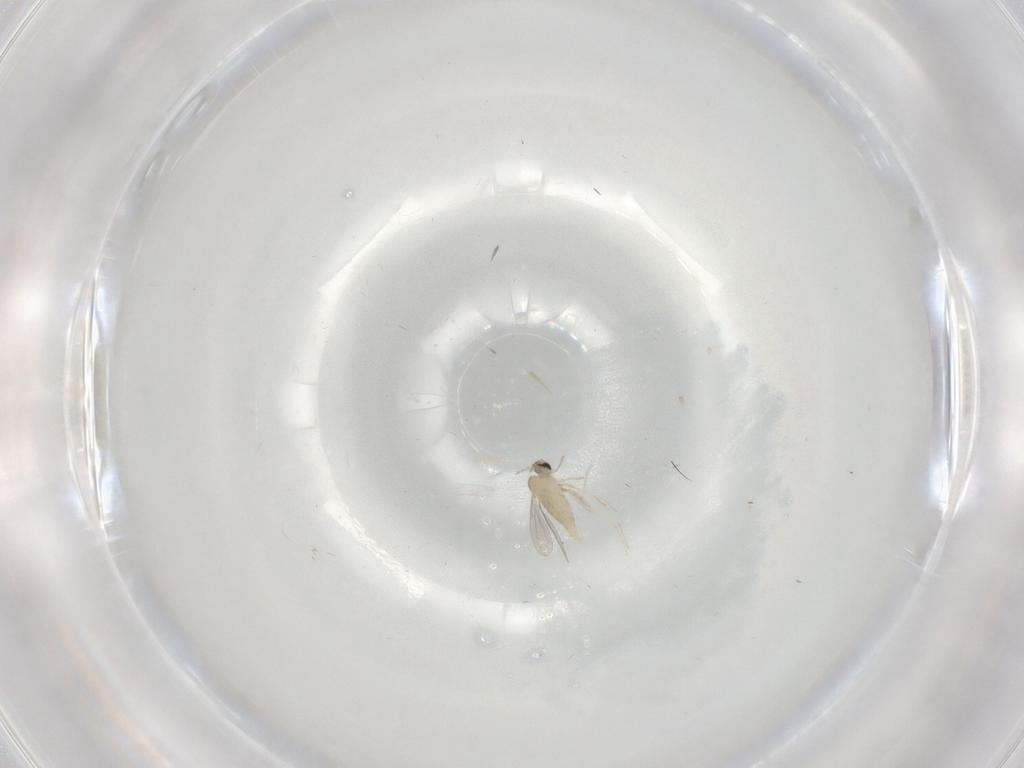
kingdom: Animalia
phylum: Arthropoda
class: Insecta
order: Diptera
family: Cecidomyiidae
